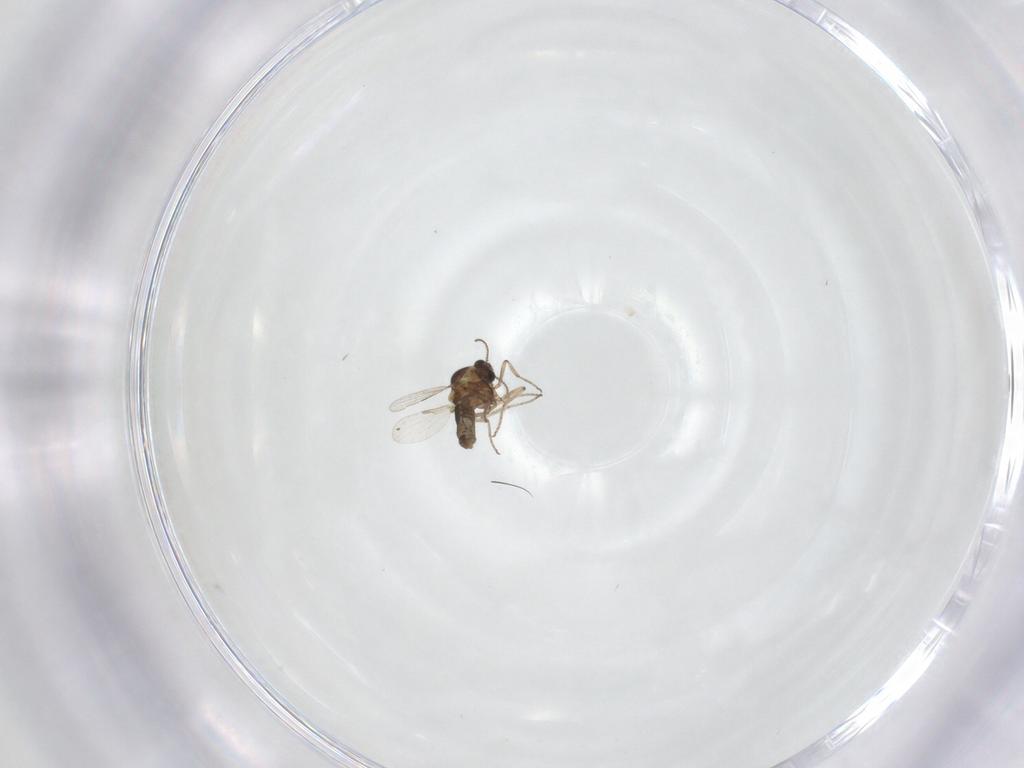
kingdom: Animalia
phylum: Arthropoda
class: Insecta
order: Diptera
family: Ceratopogonidae
